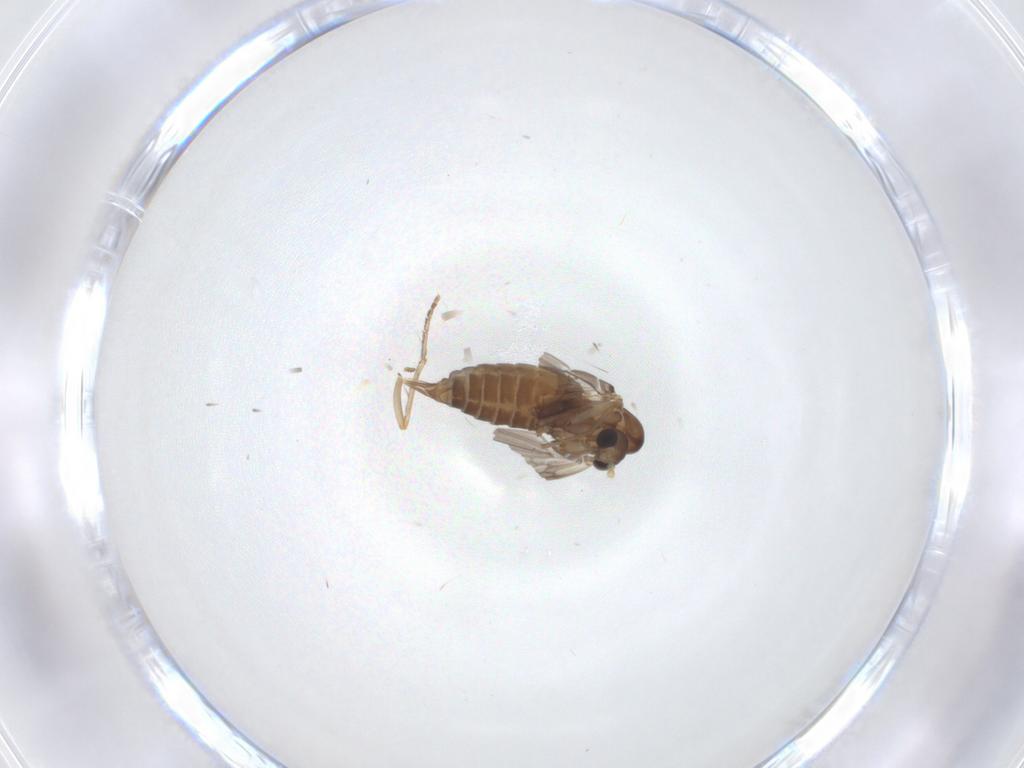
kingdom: Animalia
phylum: Arthropoda
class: Insecta
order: Diptera
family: Psychodidae
